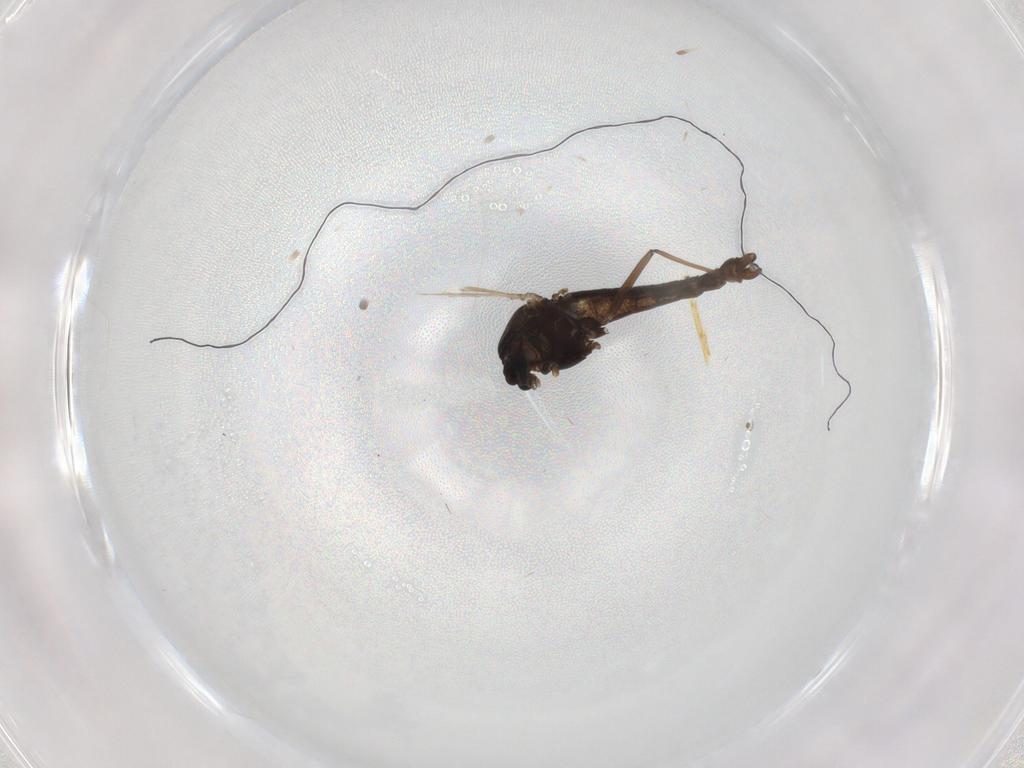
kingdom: Animalia
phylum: Arthropoda
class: Insecta
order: Diptera
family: Chironomidae
